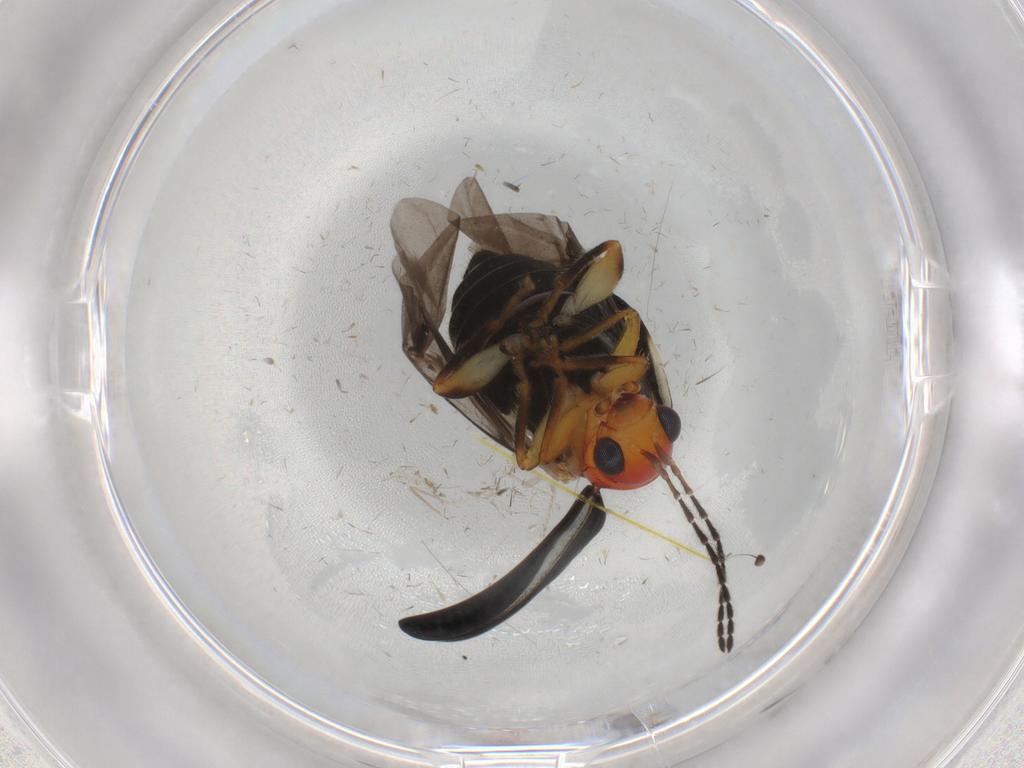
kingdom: Animalia
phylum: Arthropoda
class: Insecta
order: Coleoptera
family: Chrysomelidae
